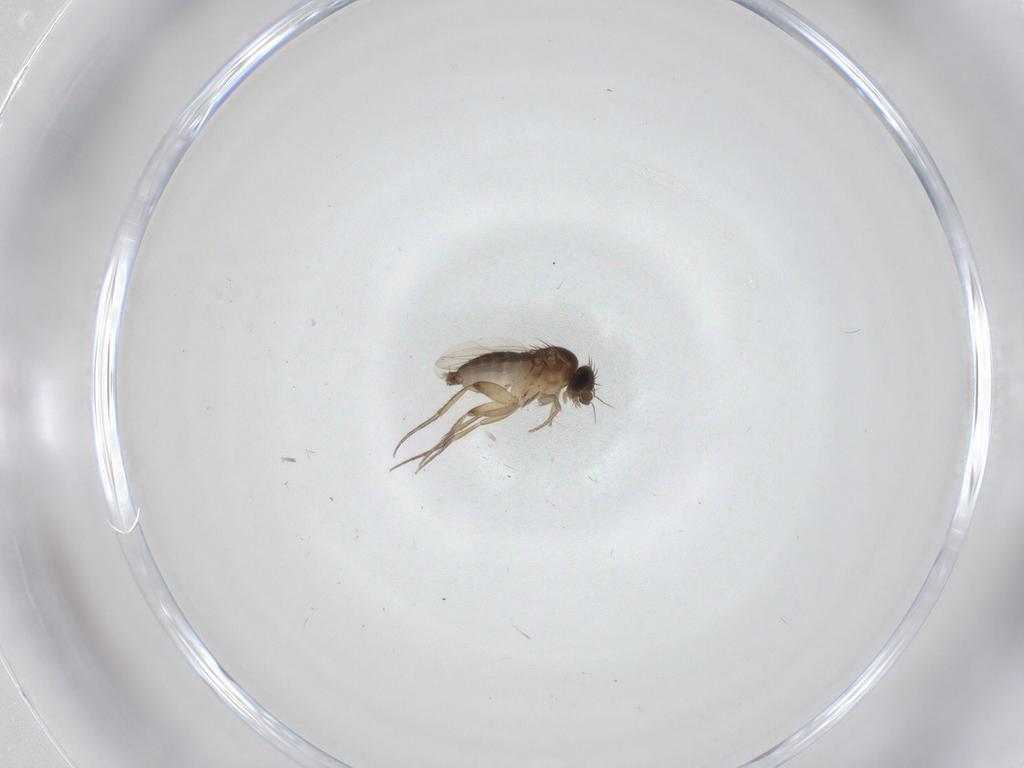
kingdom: Animalia
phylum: Arthropoda
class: Insecta
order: Diptera
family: Phoridae
